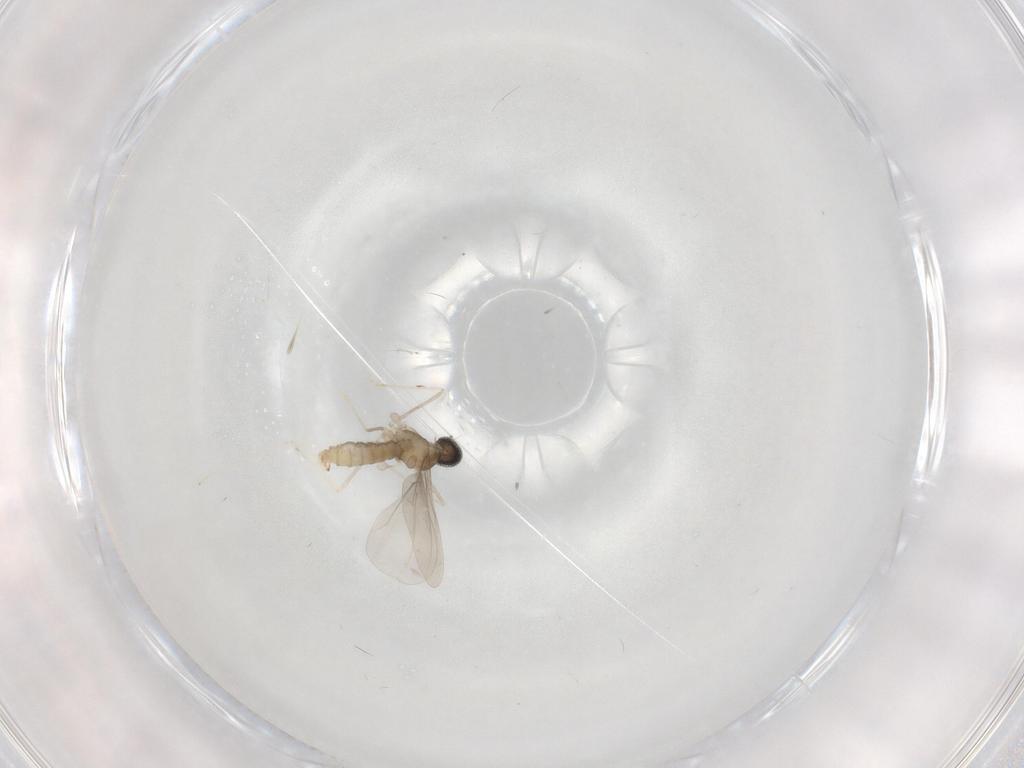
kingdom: Animalia
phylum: Arthropoda
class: Insecta
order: Diptera
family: Cecidomyiidae
